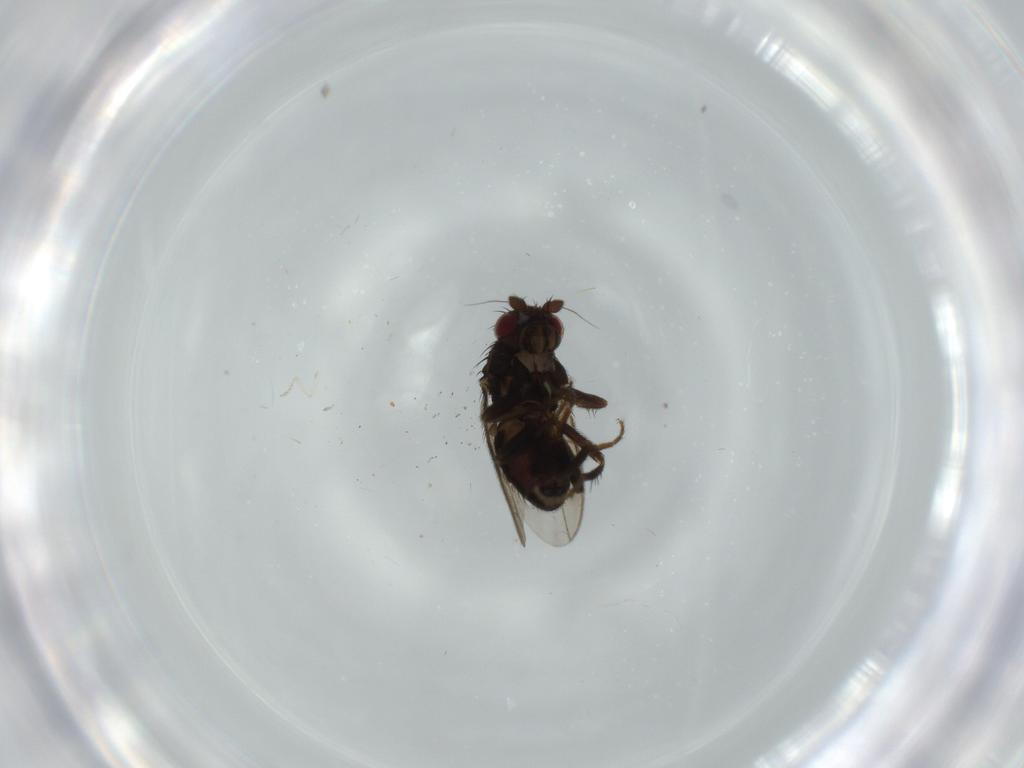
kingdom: Animalia
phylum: Arthropoda
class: Insecta
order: Diptera
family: Cecidomyiidae
